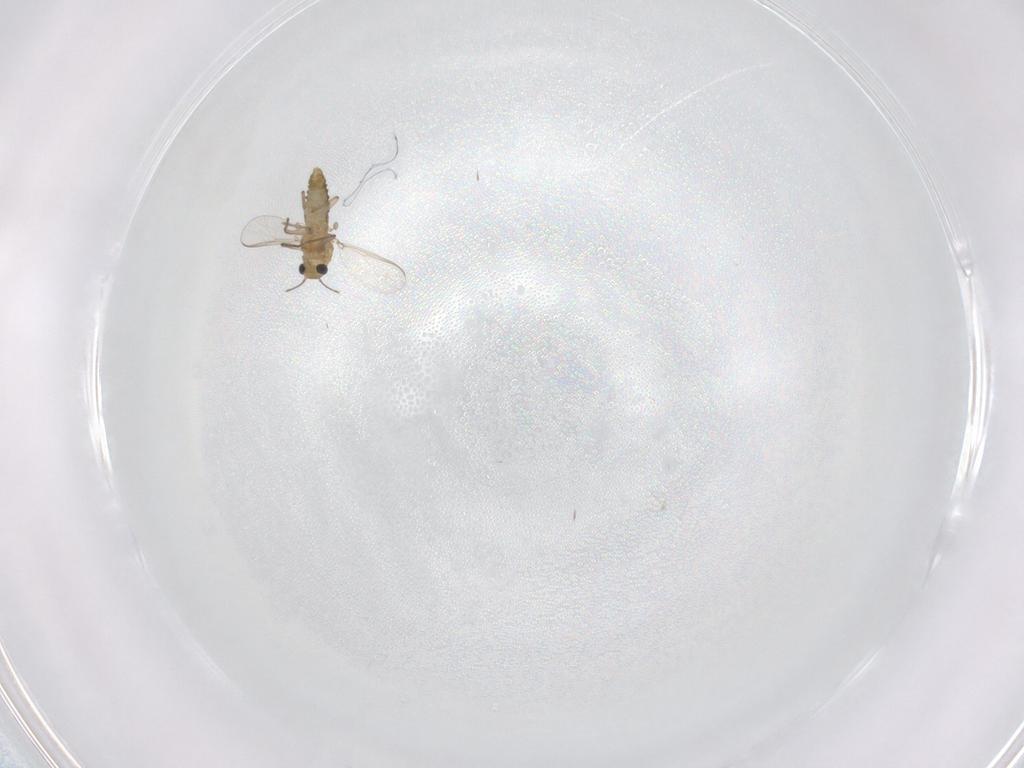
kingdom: Animalia
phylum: Arthropoda
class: Insecta
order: Diptera
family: Chironomidae
